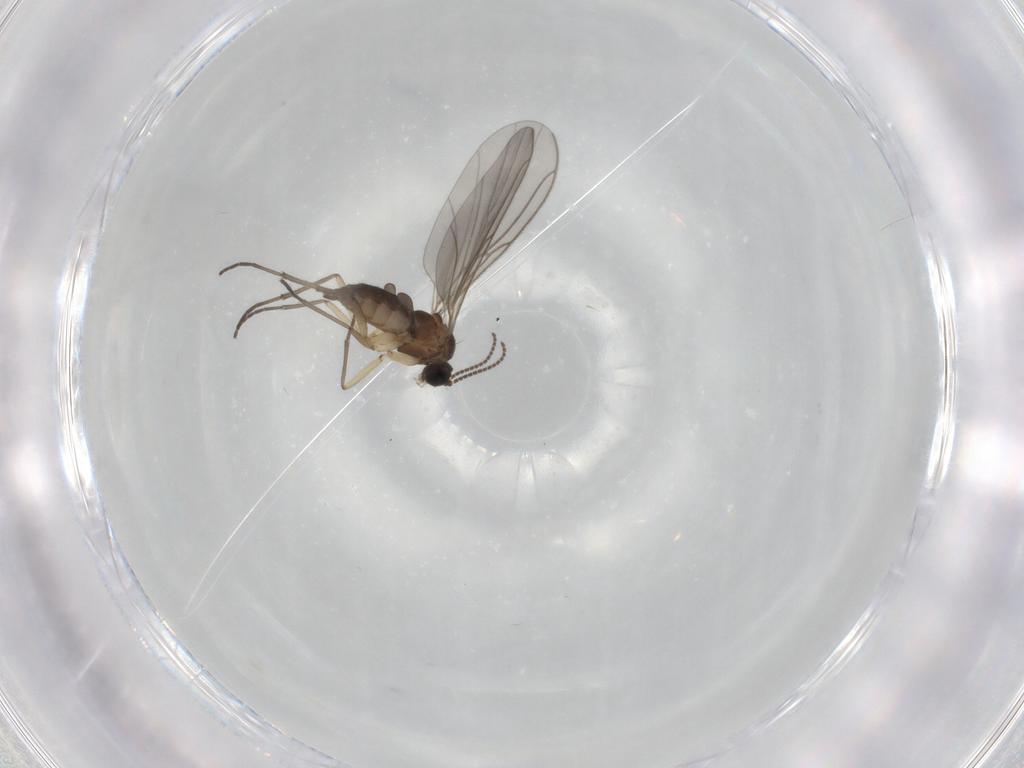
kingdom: Animalia
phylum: Arthropoda
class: Insecta
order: Diptera
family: Sciaridae
